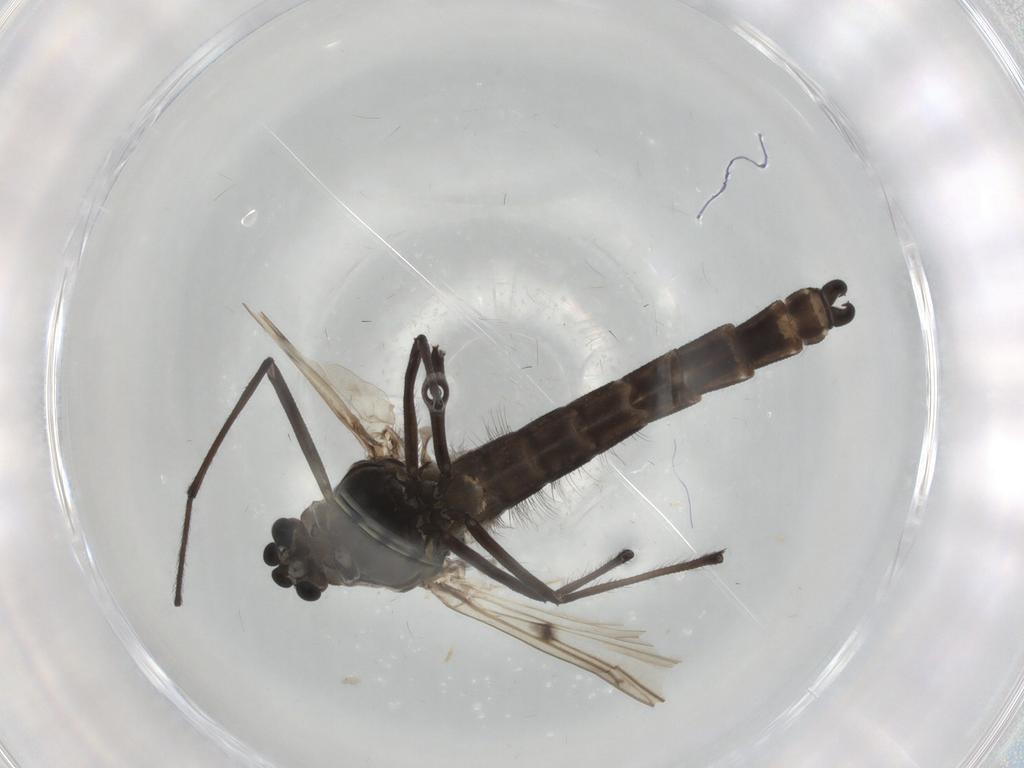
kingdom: Animalia
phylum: Arthropoda
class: Insecta
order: Diptera
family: Chironomidae
